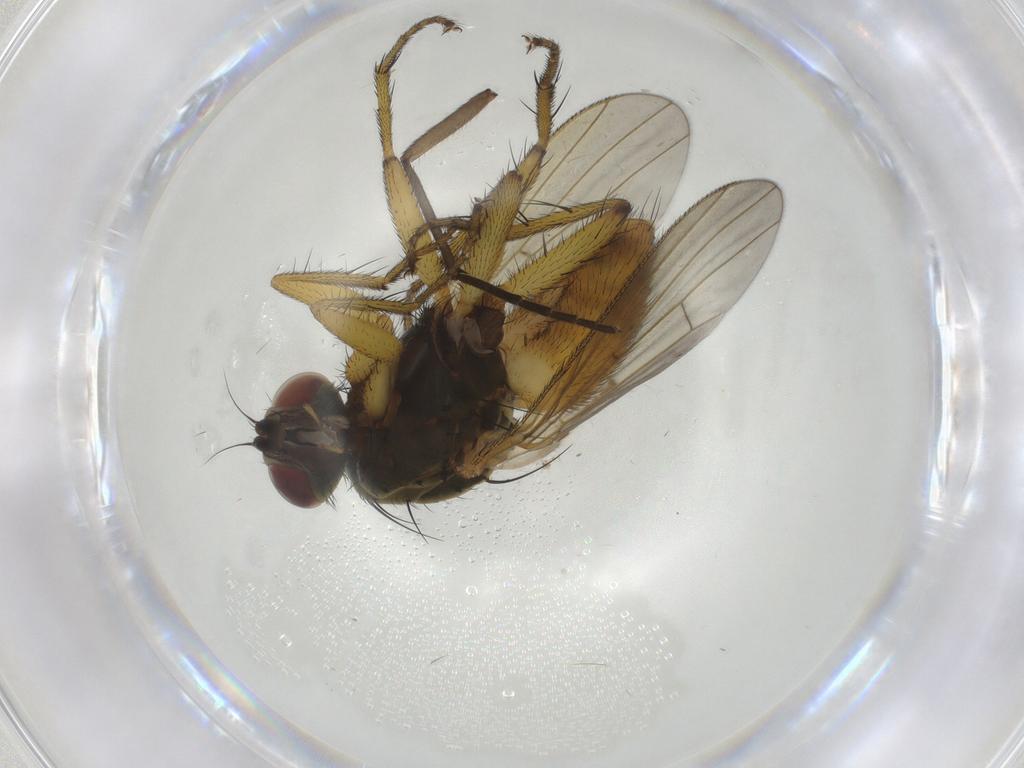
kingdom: Animalia
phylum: Arthropoda
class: Insecta
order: Diptera
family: Muscidae
